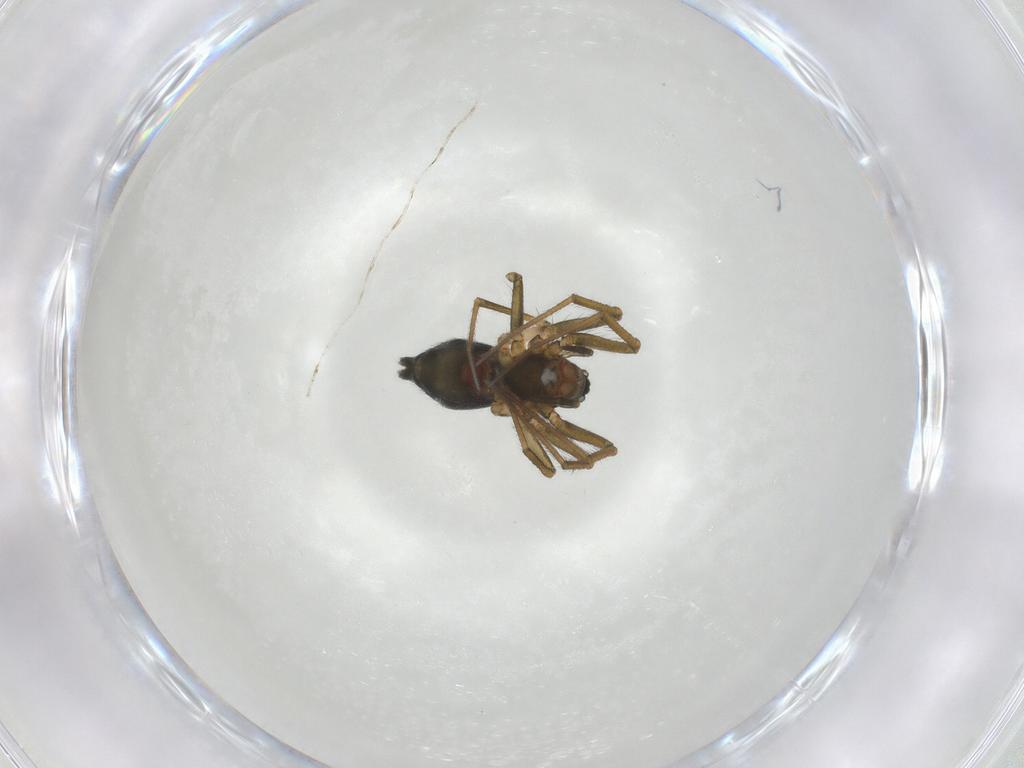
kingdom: Animalia
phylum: Arthropoda
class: Arachnida
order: Araneae
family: Linyphiidae
